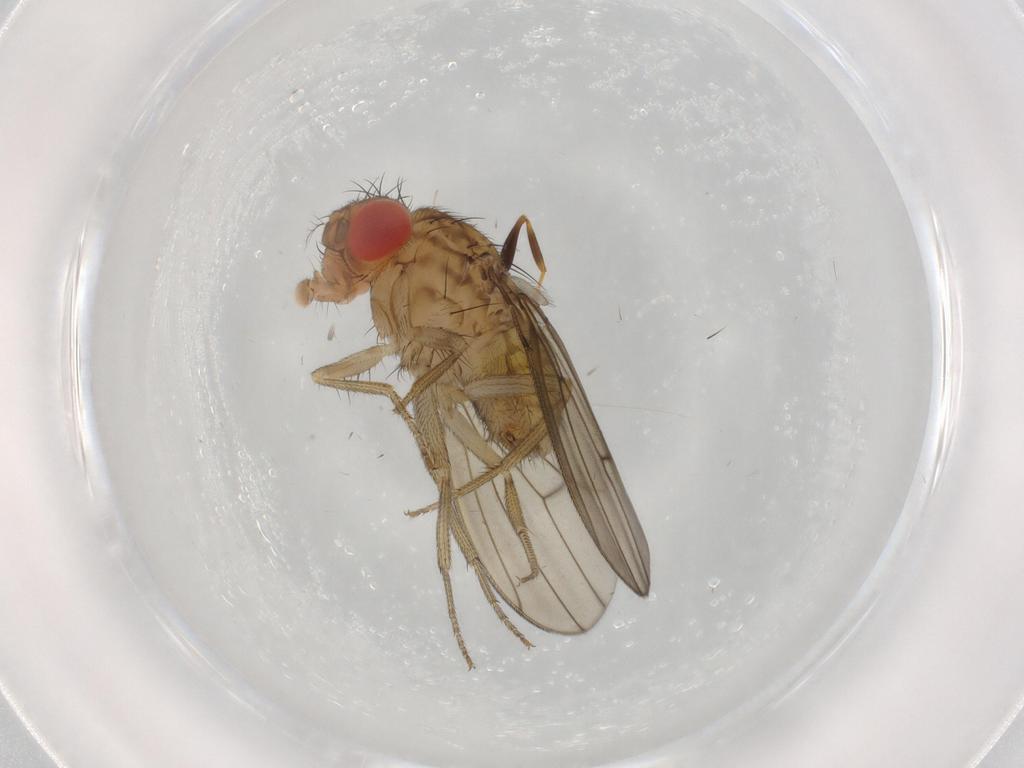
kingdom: Animalia
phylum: Arthropoda
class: Insecta
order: Diptera
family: Drosophilidae
